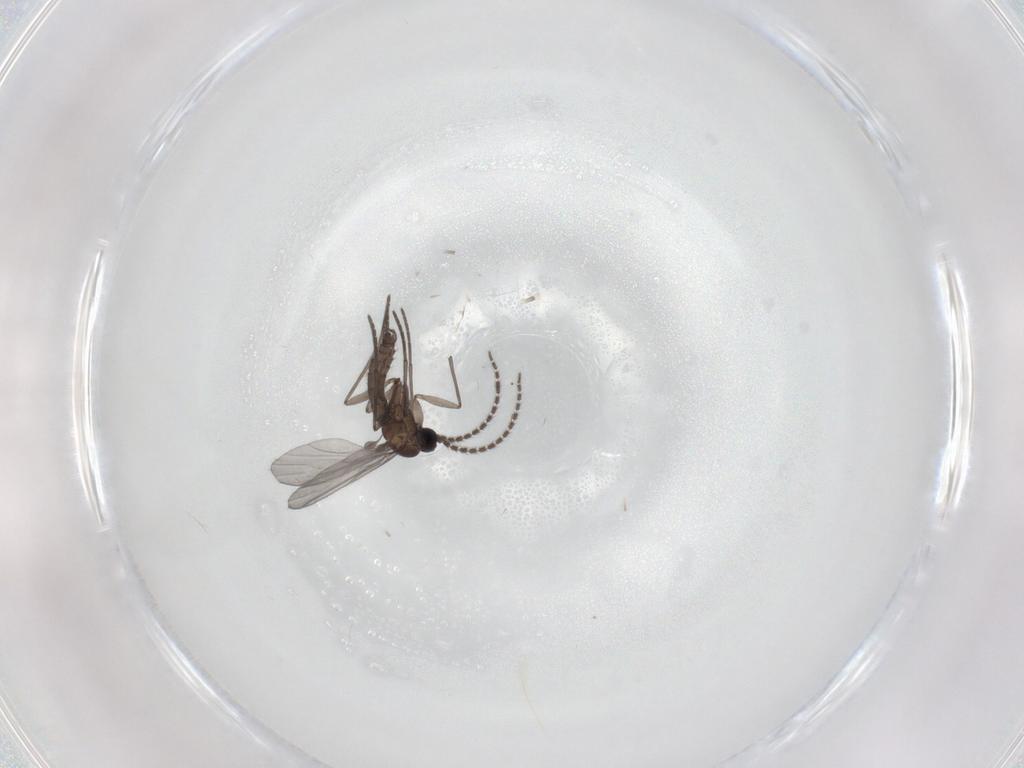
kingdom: Animalia
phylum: Arthropoda
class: Insecta
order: Diptera
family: Ceratopogonidae
